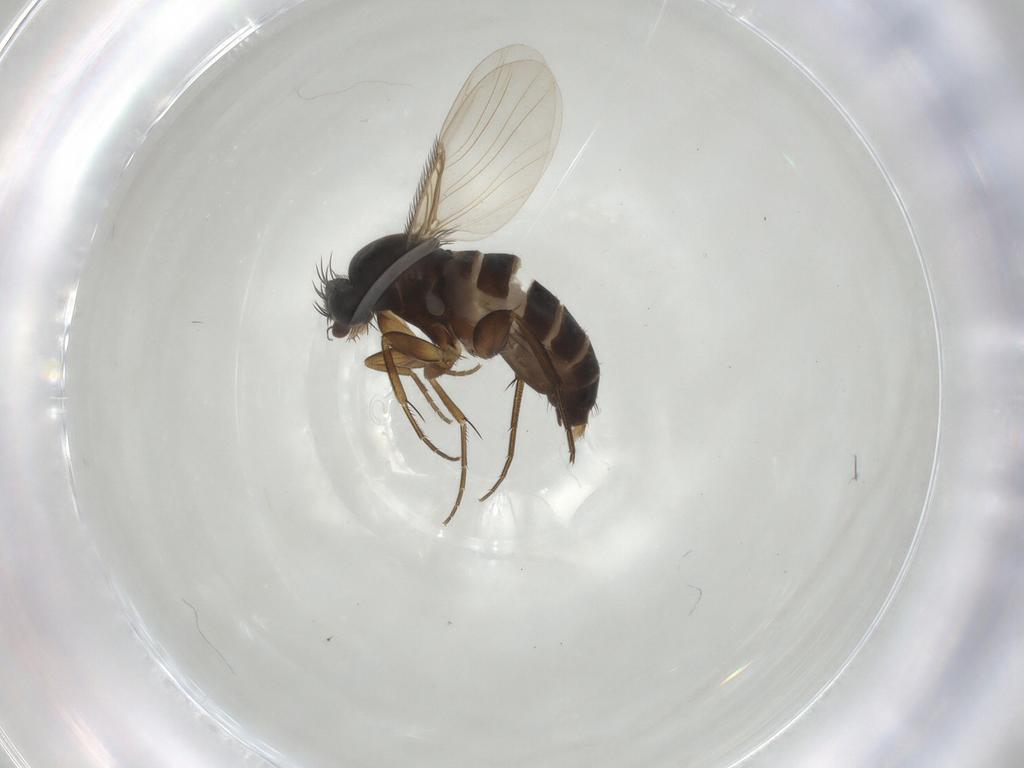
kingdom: Animalia
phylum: Arthropoda
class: Insecta
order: Diptera
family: Phoridae
